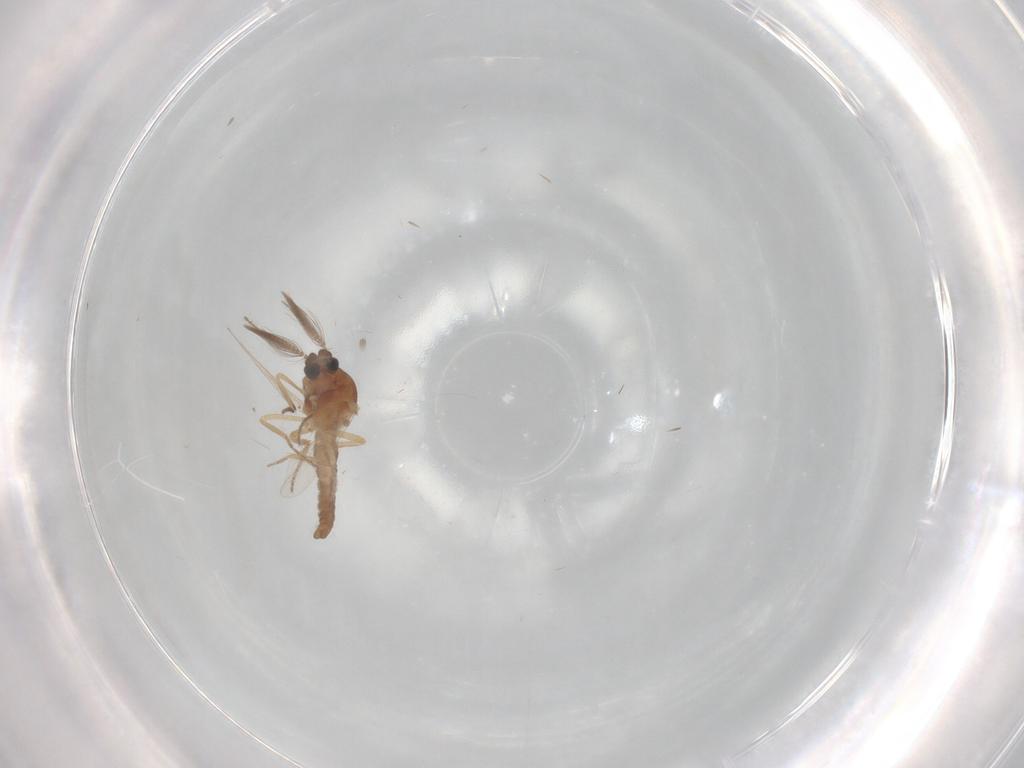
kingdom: Animalia
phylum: Arthropoda
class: Insecta
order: Diptera
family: Ceratopogonidae
